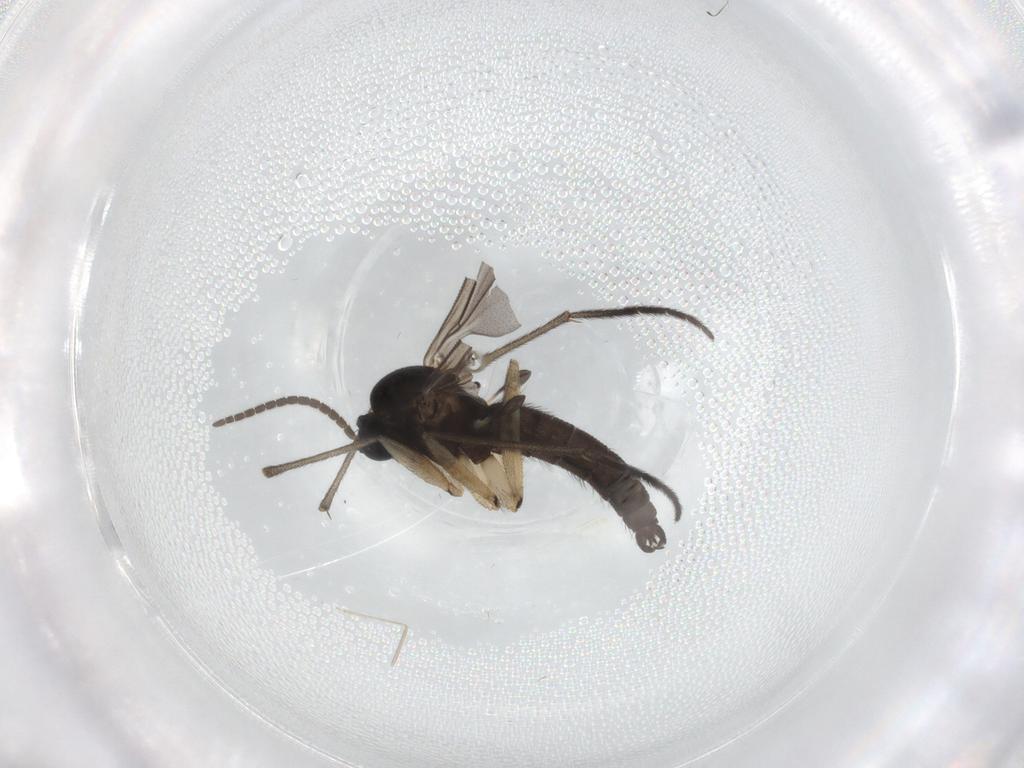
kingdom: Animalia
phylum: Arthropoda
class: Insecta
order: Diptera
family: Sciaridae
